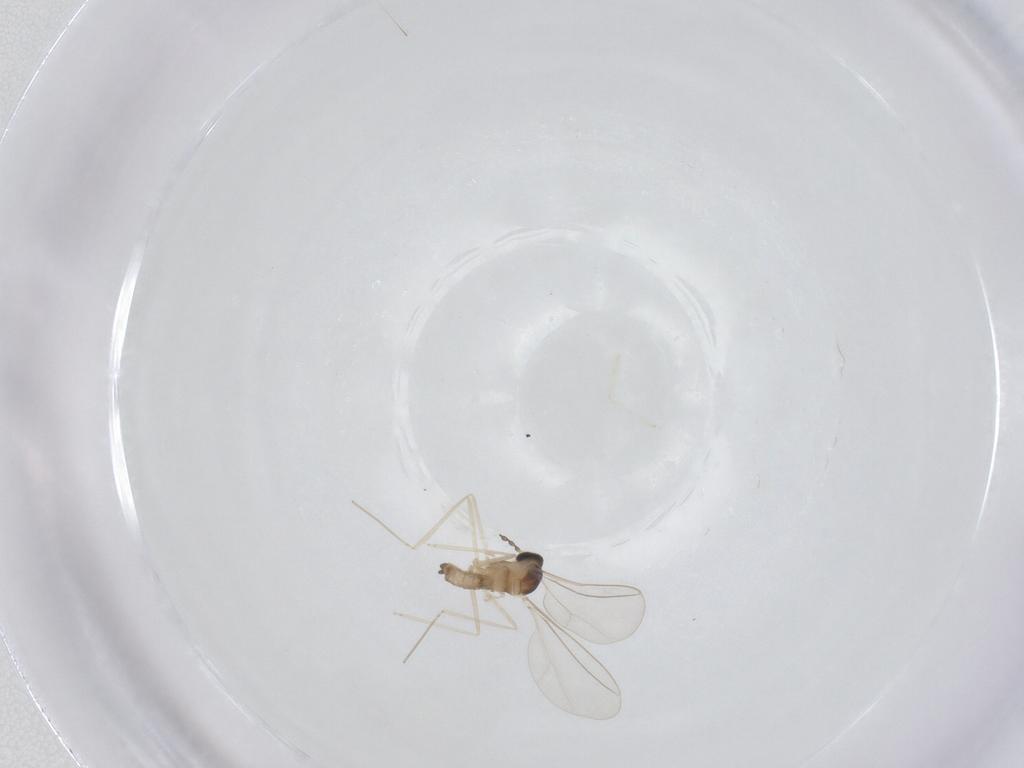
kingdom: Animalia
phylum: Arthropoda
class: Insecta
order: Diptera
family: Cecidomyiidae
